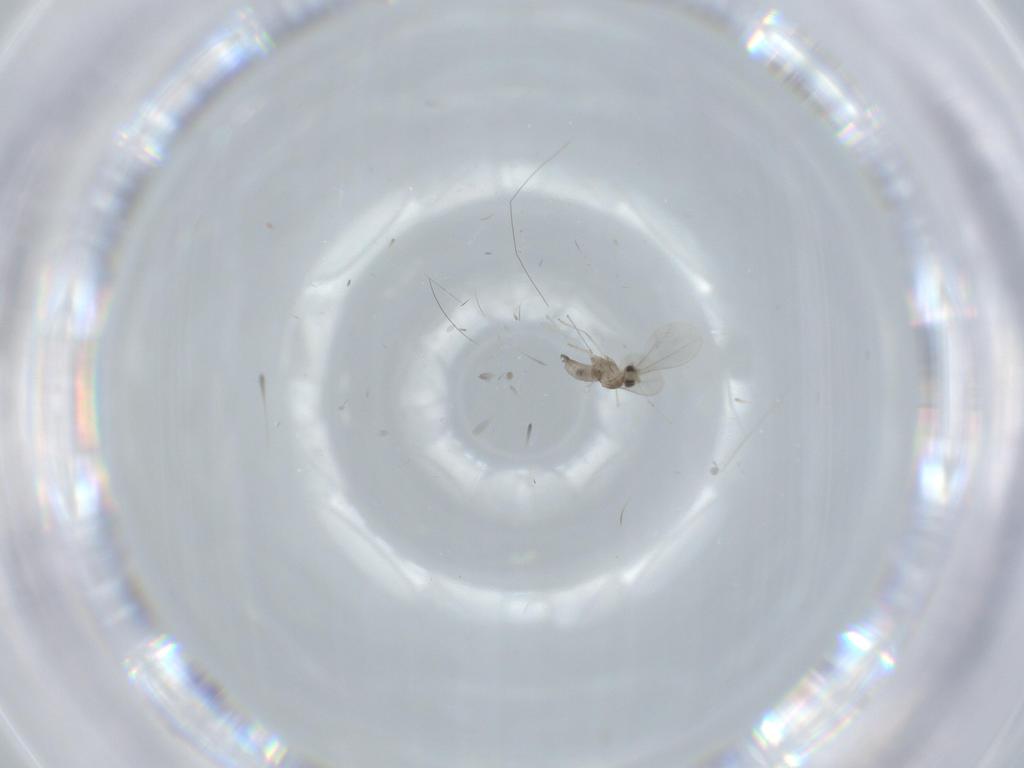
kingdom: Animalia
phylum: Arthropoda
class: Insecta
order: Diptera
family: Cecidomyiidae
